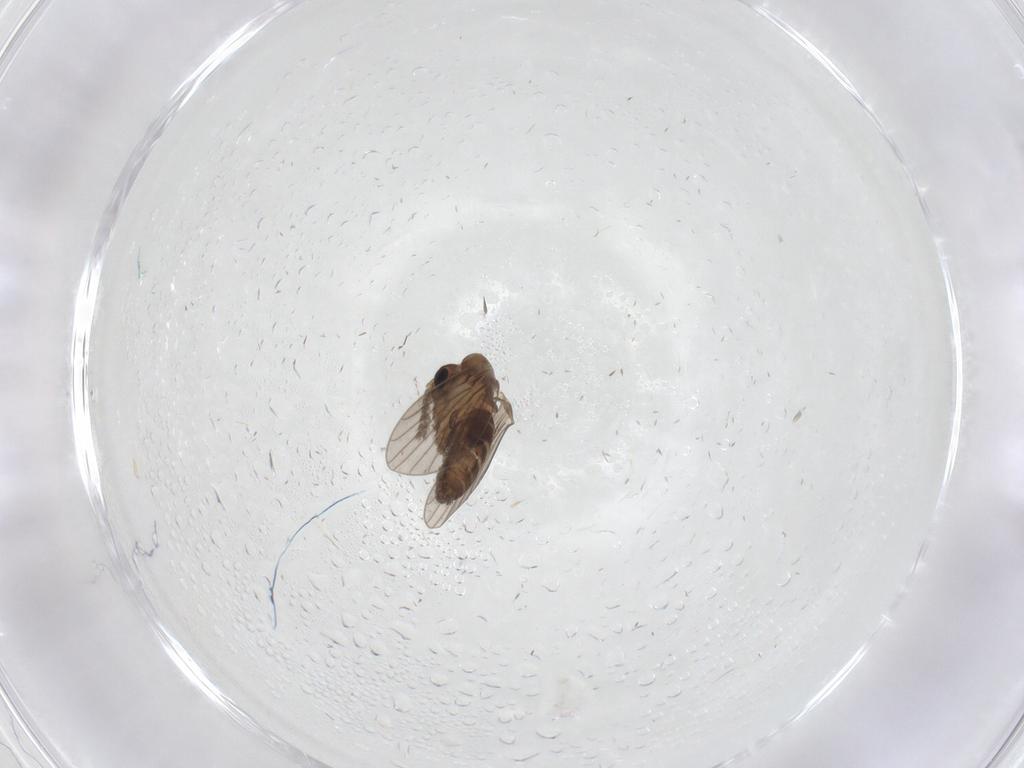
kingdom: Animalia
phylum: Arthropoda
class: Insecta
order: Diptera
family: Psychodidae
